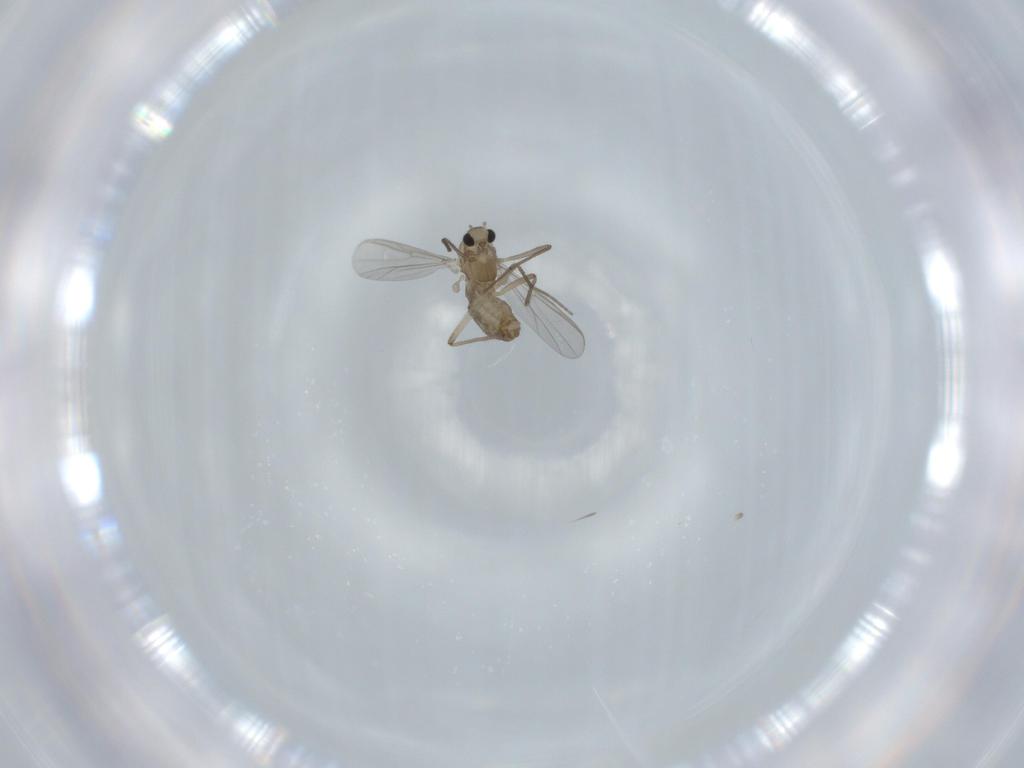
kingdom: Animalia
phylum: Arthropoda
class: Insecta
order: Diptera
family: Chironomidae
